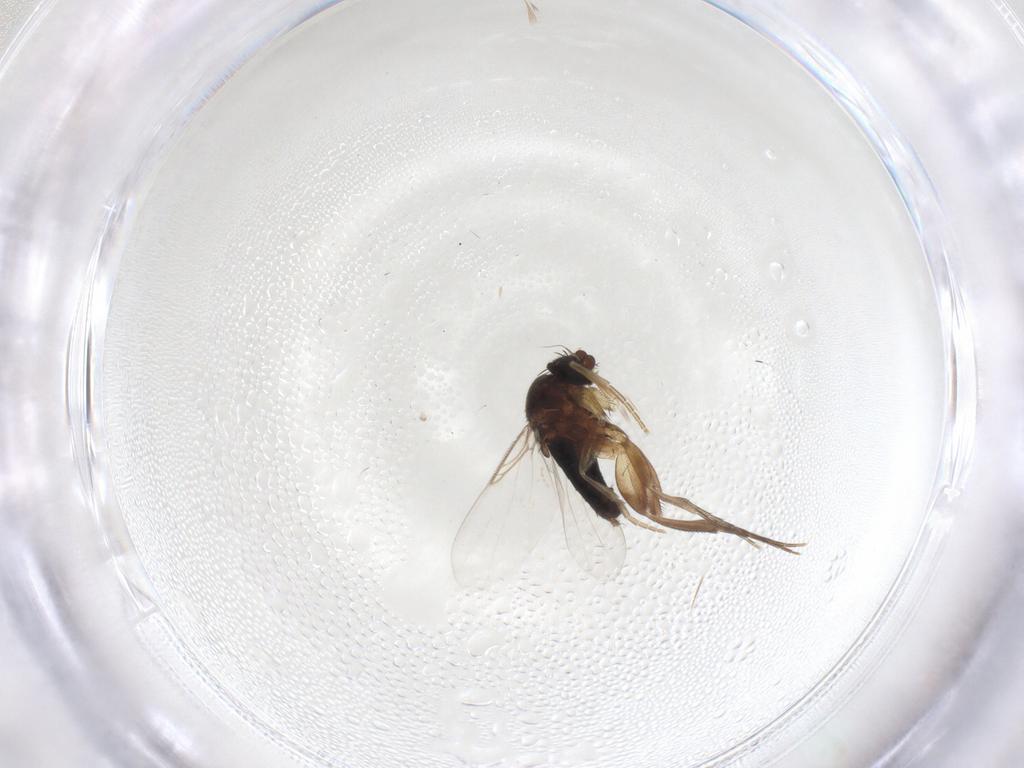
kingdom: Animalia
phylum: Arthropoda
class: Insecta
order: Diptera
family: Phoridae
